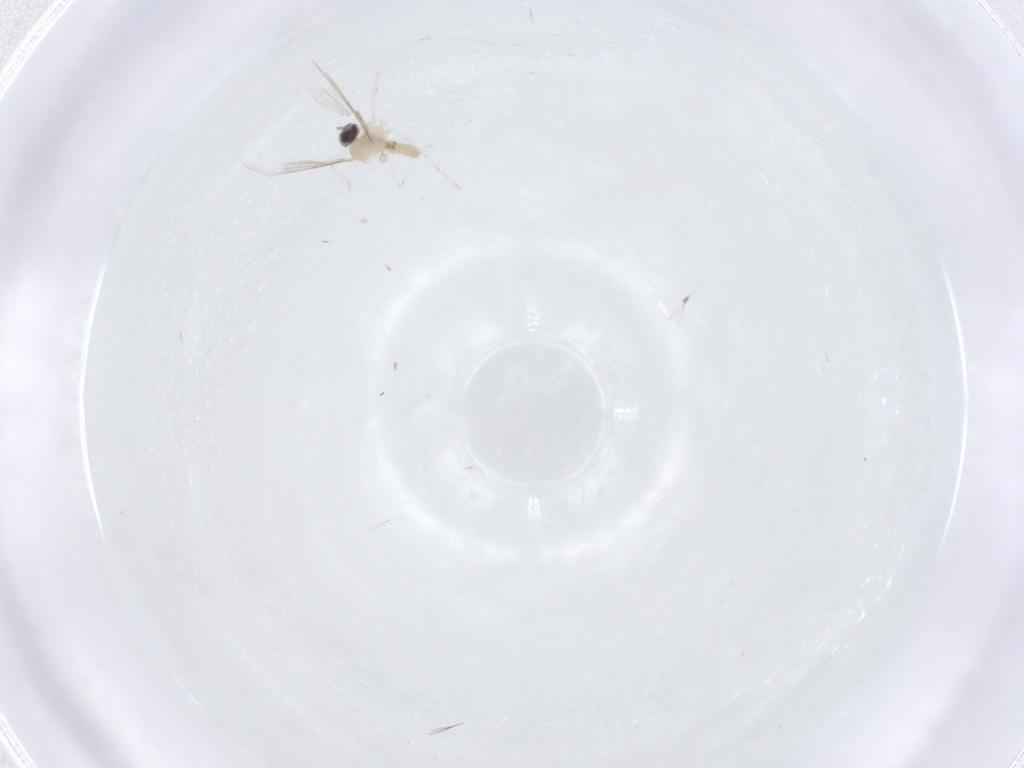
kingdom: Animalia
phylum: Arthropoda
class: Insecta
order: Diptera
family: Cecidomyiidae
